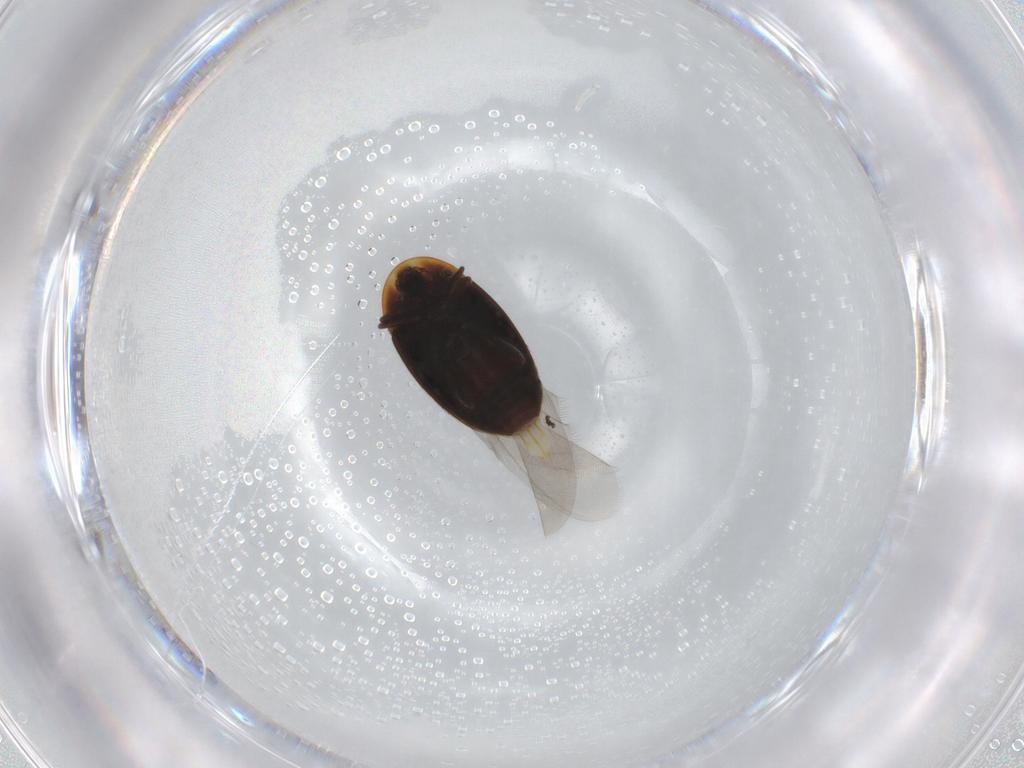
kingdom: Animalia
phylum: Arthropoda
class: Insecta
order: Coleoptera
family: Corylophidae
